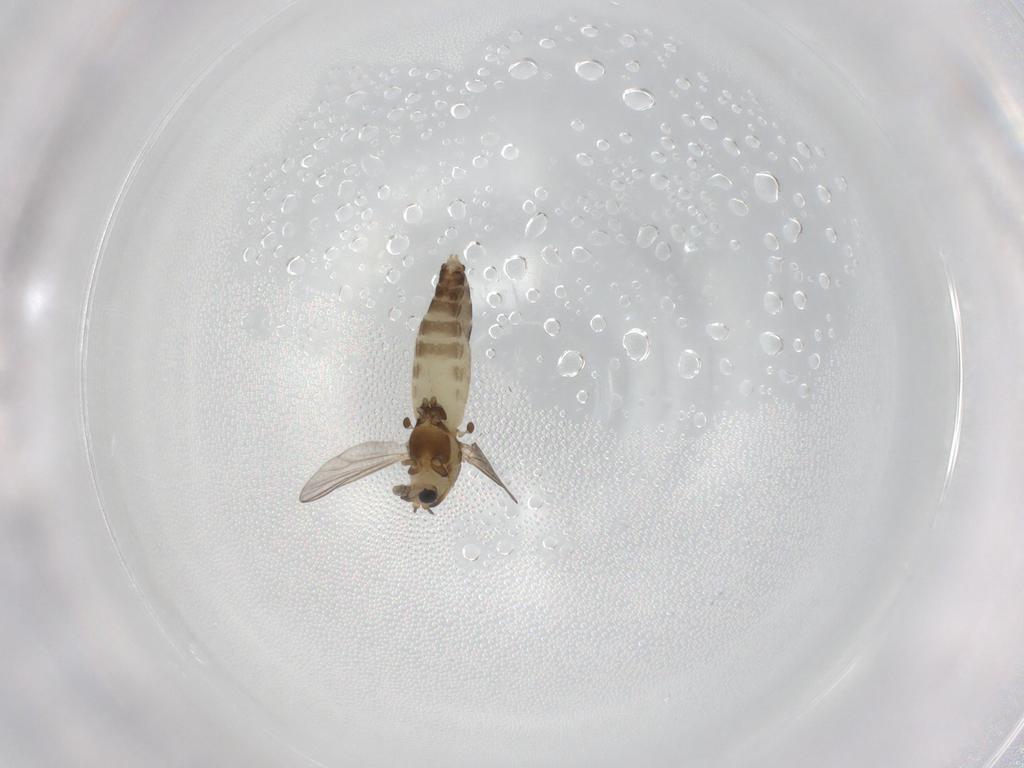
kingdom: Animalia
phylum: Arthropoda
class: Insecta
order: Diptera
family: Chironomidae
